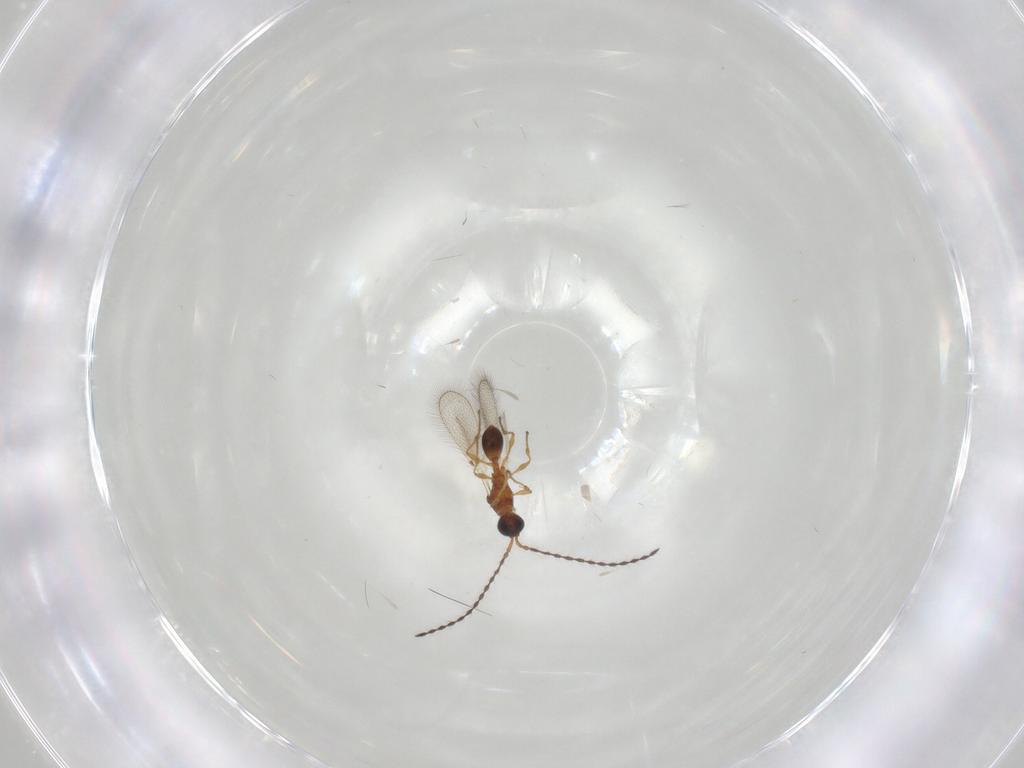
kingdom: Animalia
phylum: Arthropoda
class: Insecta
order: Hymenoptera
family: Diapriidae
